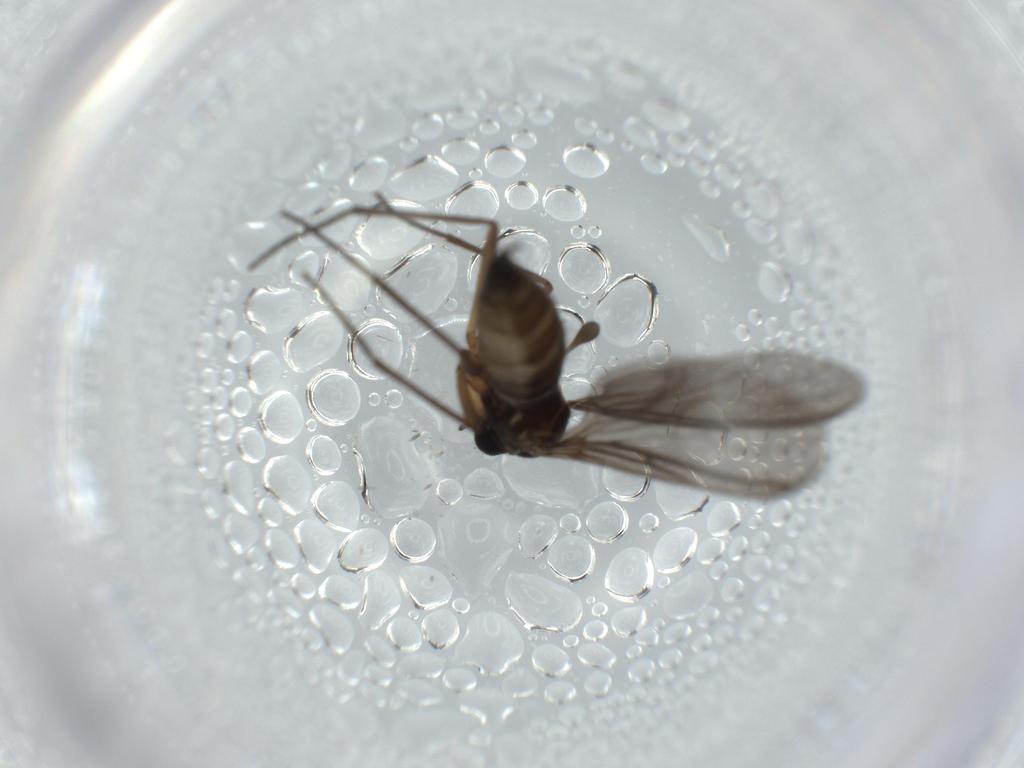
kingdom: Animalia
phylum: Arthropoda
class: Insecta
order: Diptera
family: Sciaridae
